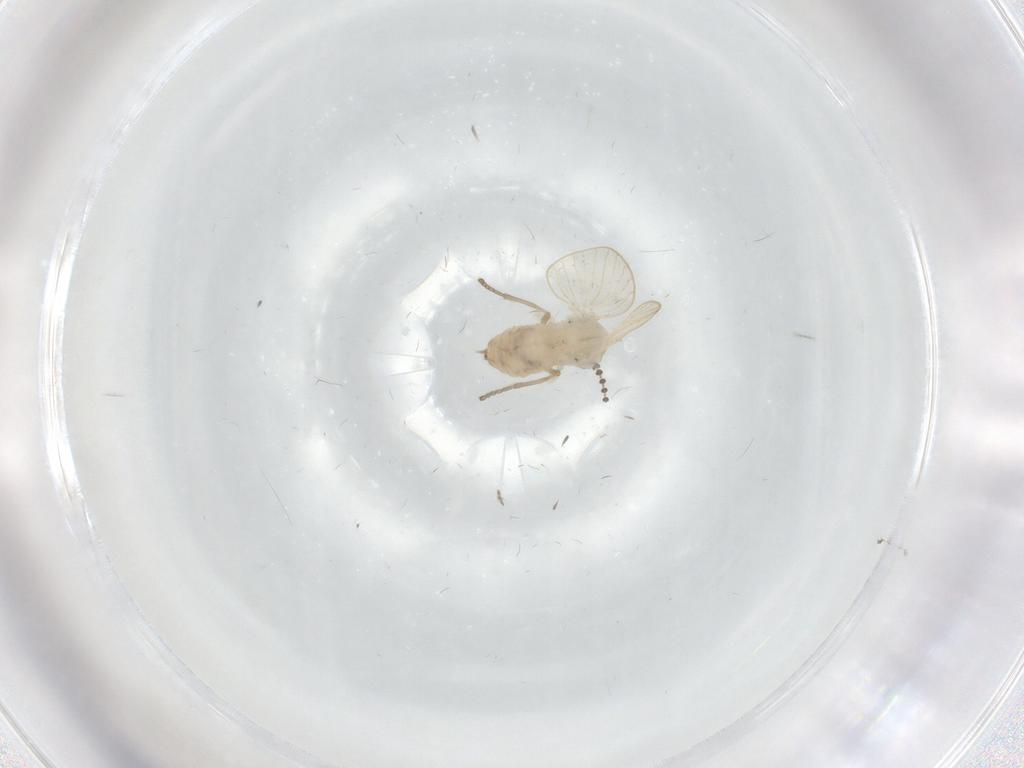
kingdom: Animalia
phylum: Arthropoda
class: Insecta
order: Diptera
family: Psychodidae
